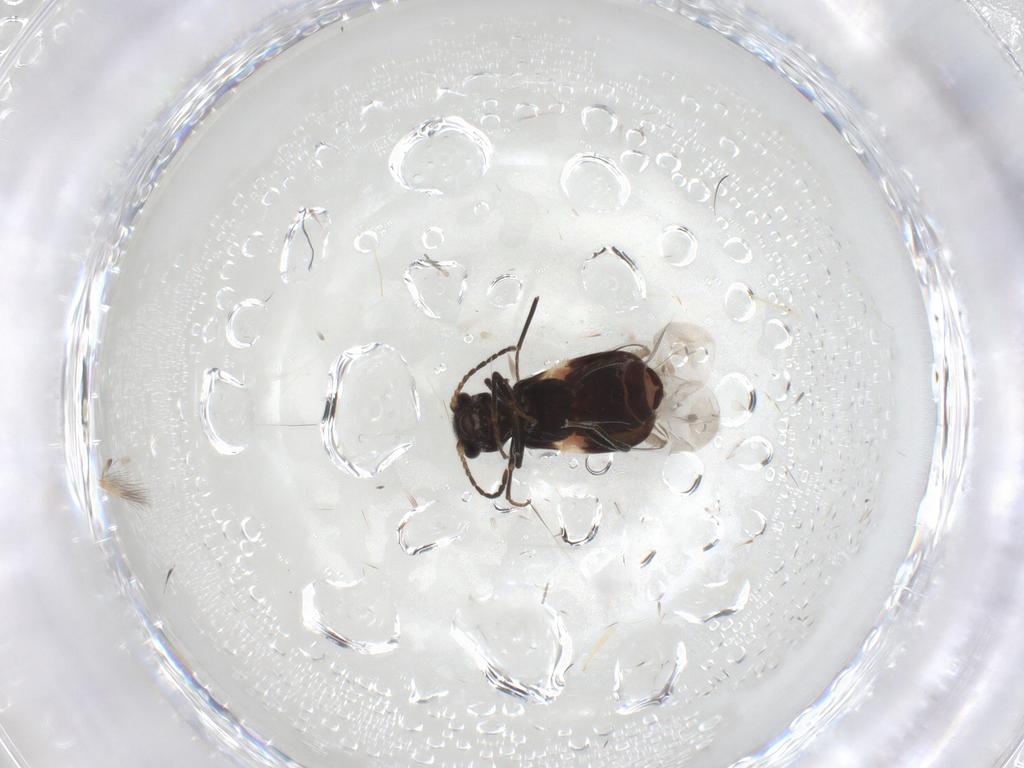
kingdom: Animalia
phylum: Arthropoda
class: Insecta
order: Coleoptera
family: Melyridae
